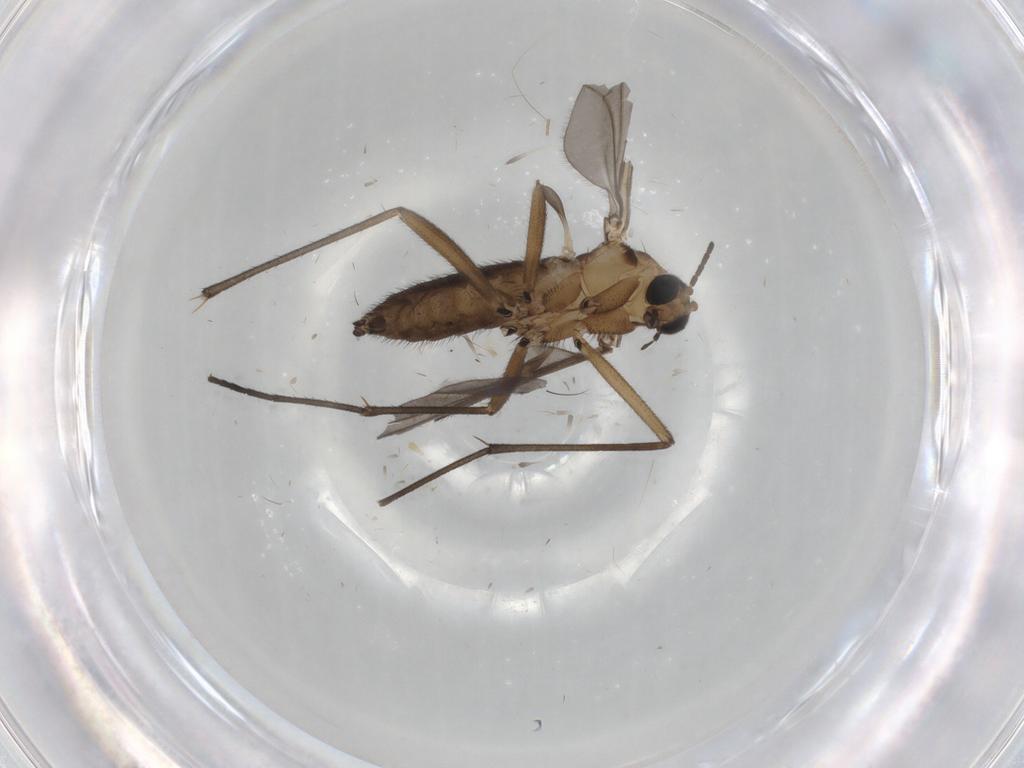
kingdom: Animalia
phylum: Arthropoda
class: Insecta
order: Diptera
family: Sciaridae
